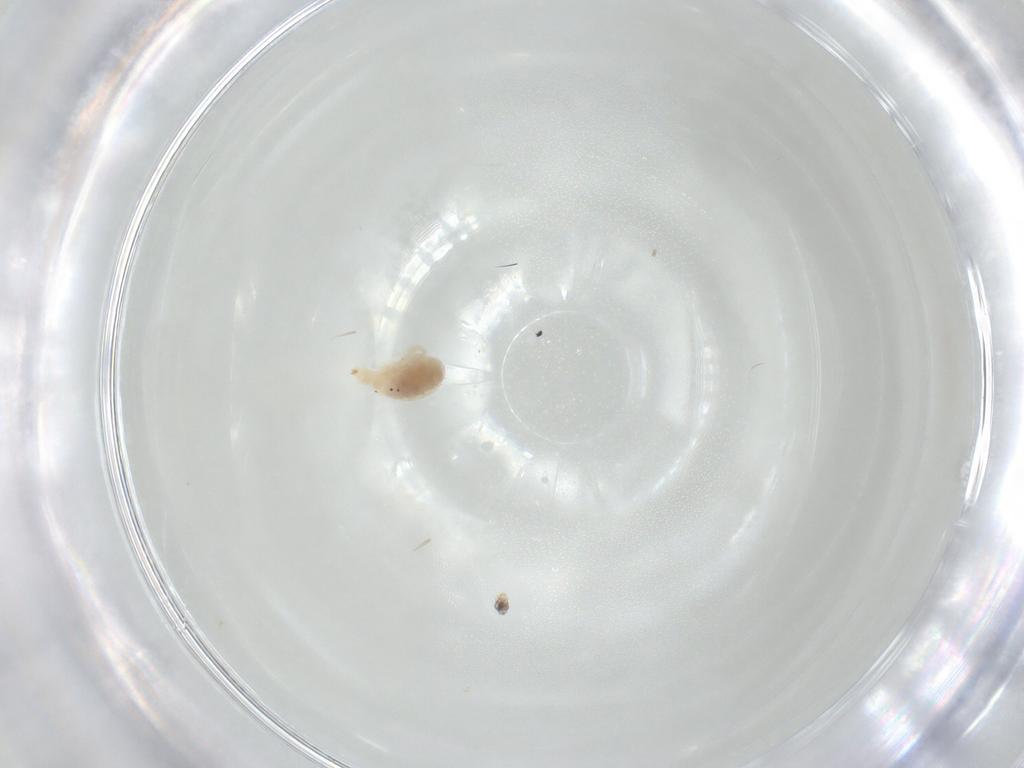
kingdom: Animalia
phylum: Arthropoda
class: Arachnida
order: Trombidiformes
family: Bdellidae
